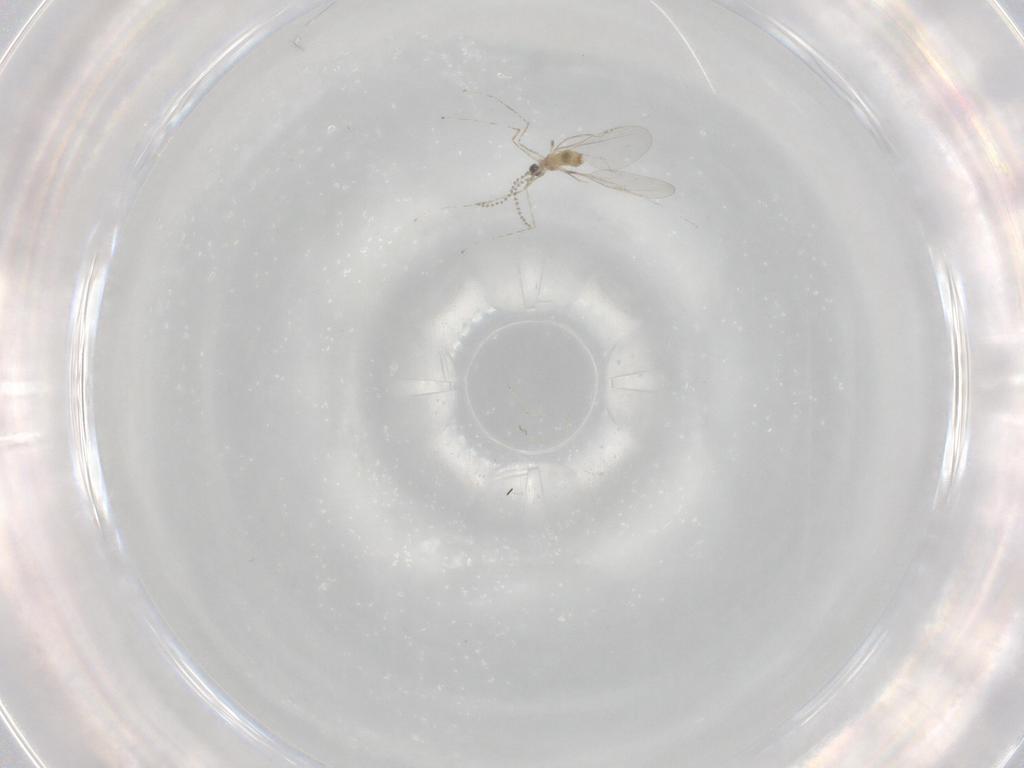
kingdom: Animalia
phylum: Arthropoda
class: Insecta
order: Diptera
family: Cecidomyiidae
